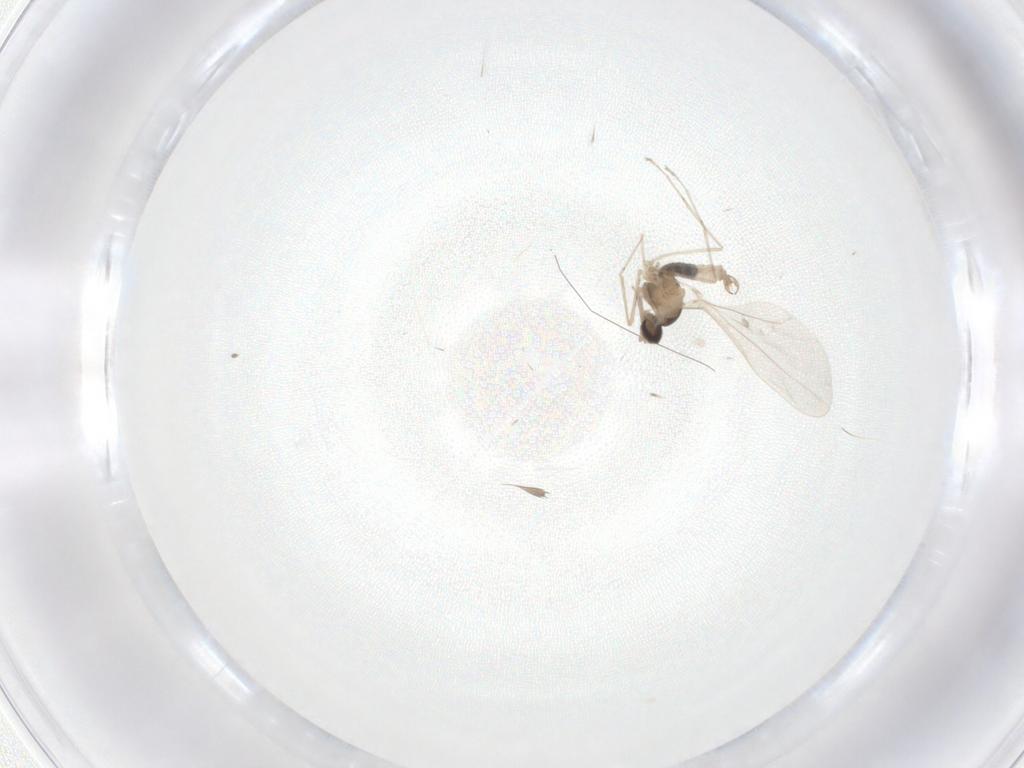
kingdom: Animalia
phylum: Arthropoda
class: Insecta
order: Diptera
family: Cecidomyiidae
